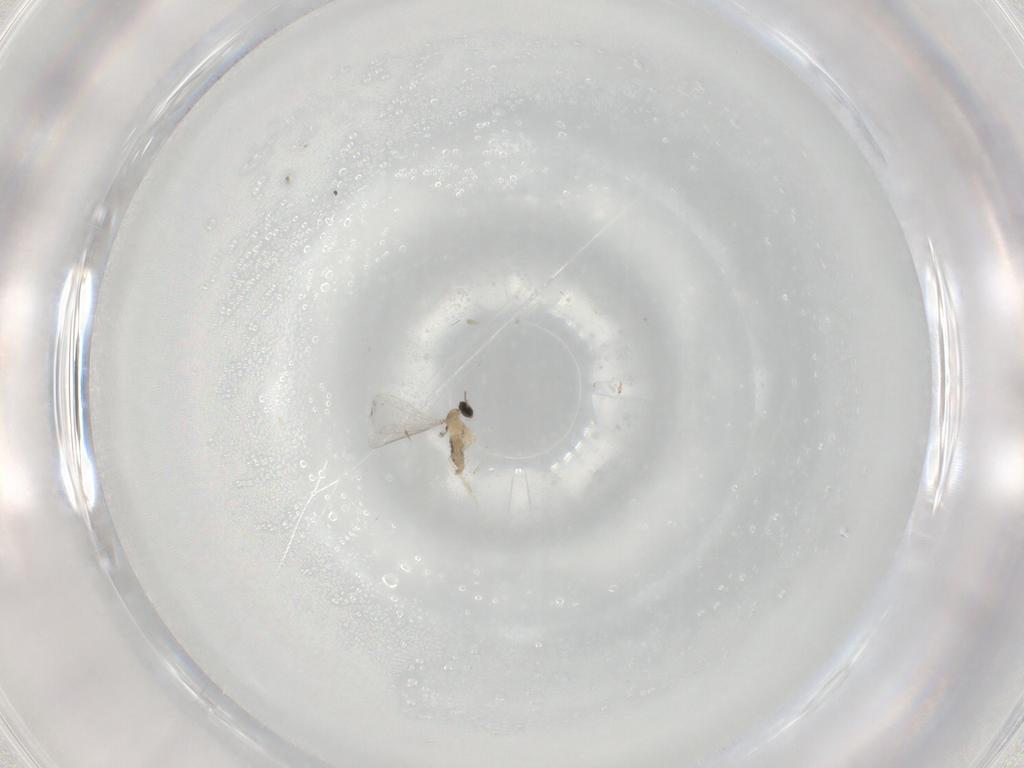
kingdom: Animalia
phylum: Arthropoda
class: Insecta
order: Diptera
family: Cecidomyiidae
